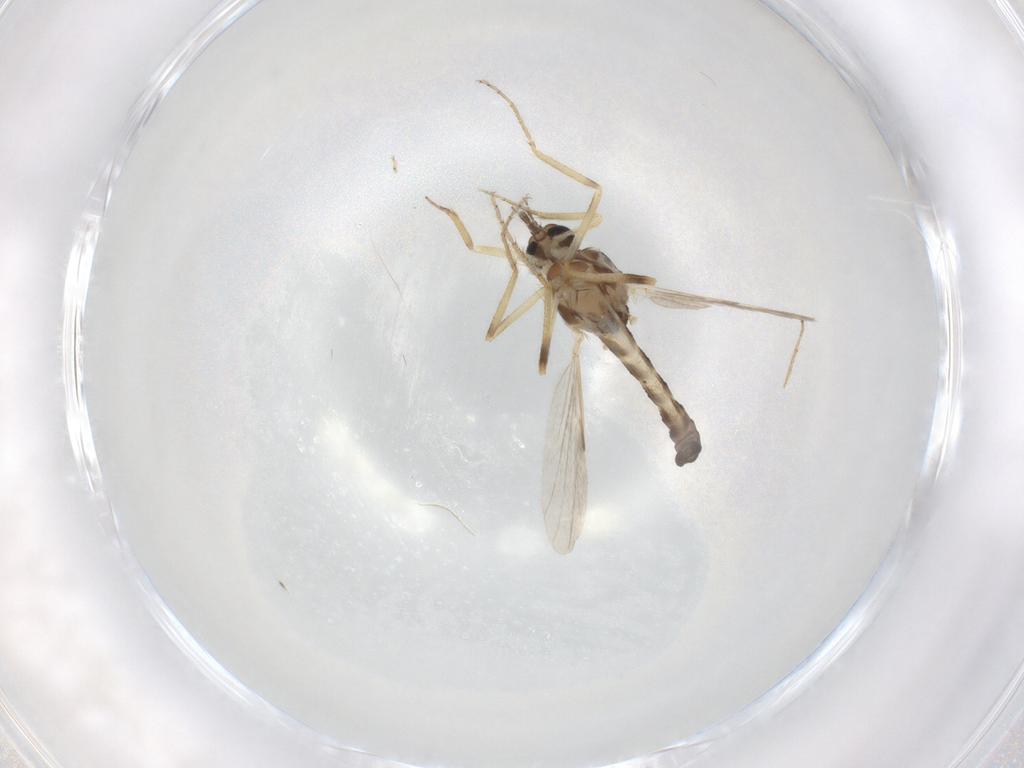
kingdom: Animalia
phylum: Arthropoda
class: Insecta
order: Diptera
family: Ceratopogonidae
